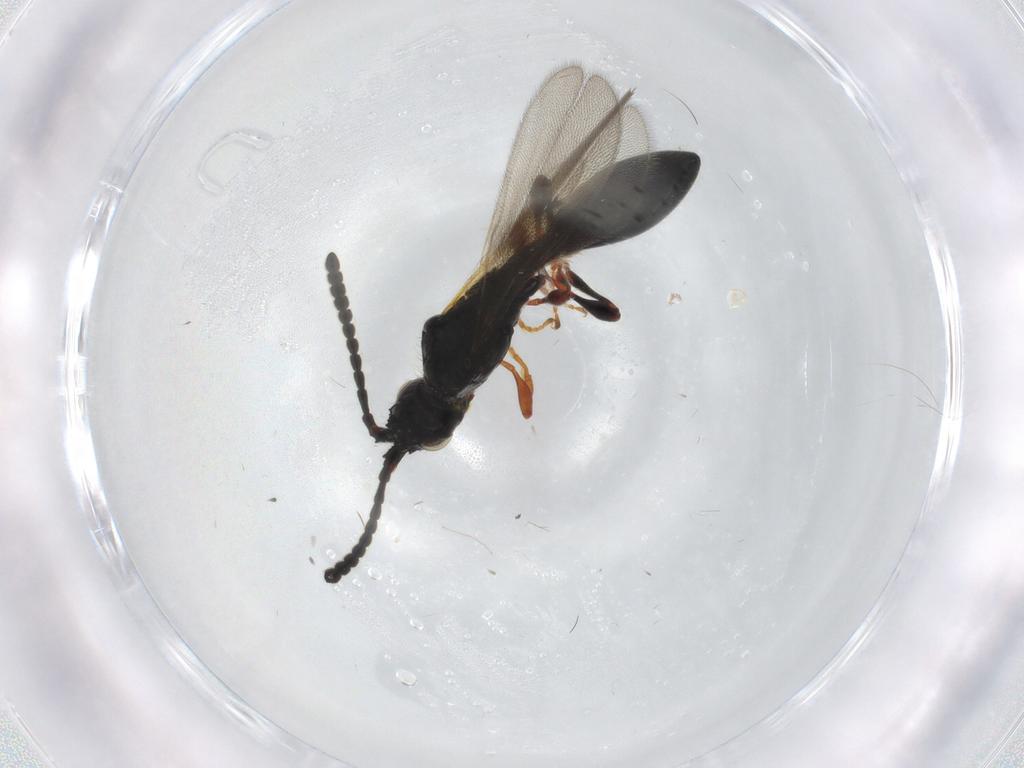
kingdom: Animalia
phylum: Arthropoda
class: Insecta
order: Hymenoptera
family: Diapriidae
